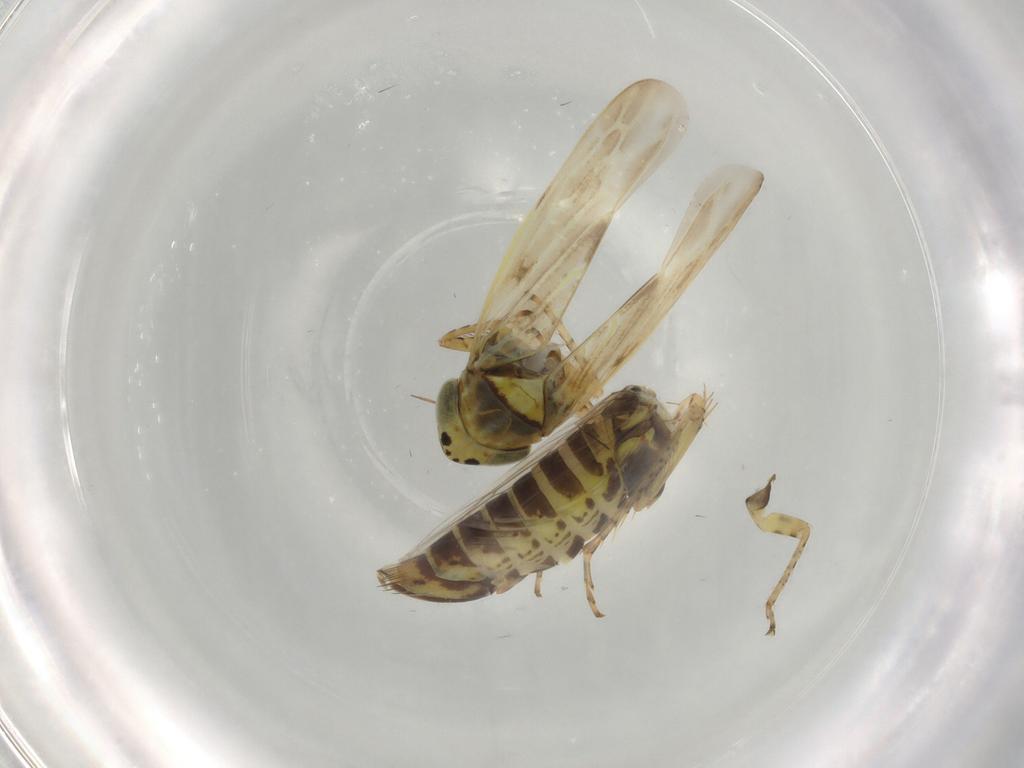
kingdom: Animalia
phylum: Arthropoda
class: Insecta
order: Hemiptera
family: Cicadellidae
